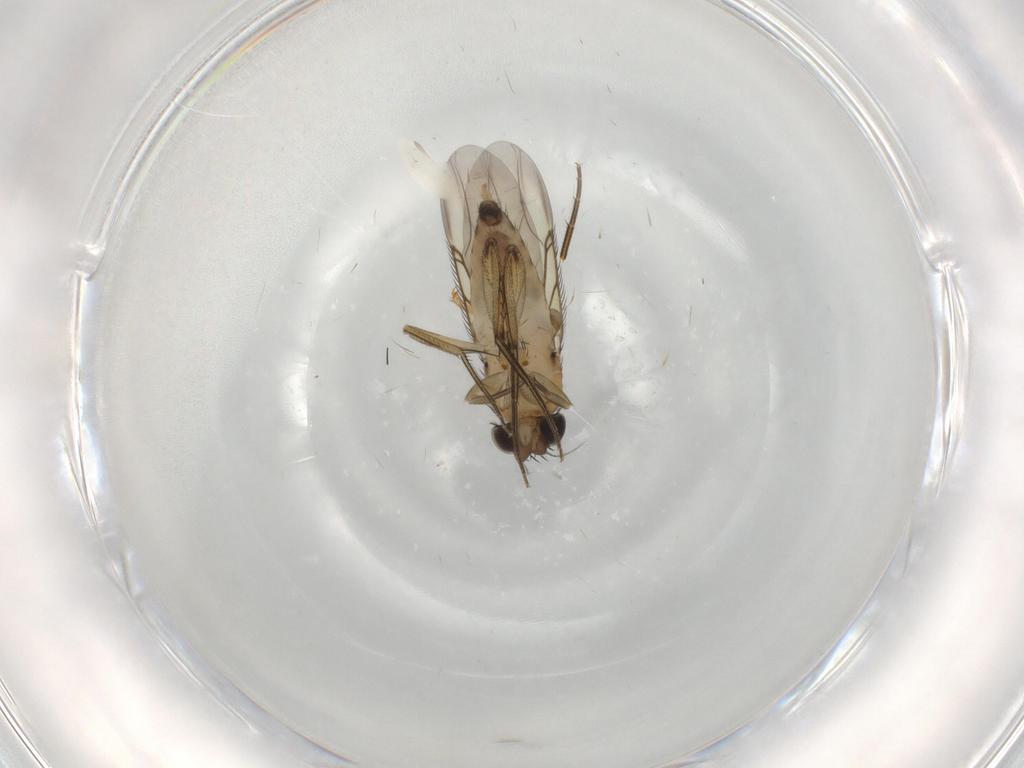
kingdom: Animalia
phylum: Arthropoda
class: Insecta
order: Diptera
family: Phoridae
